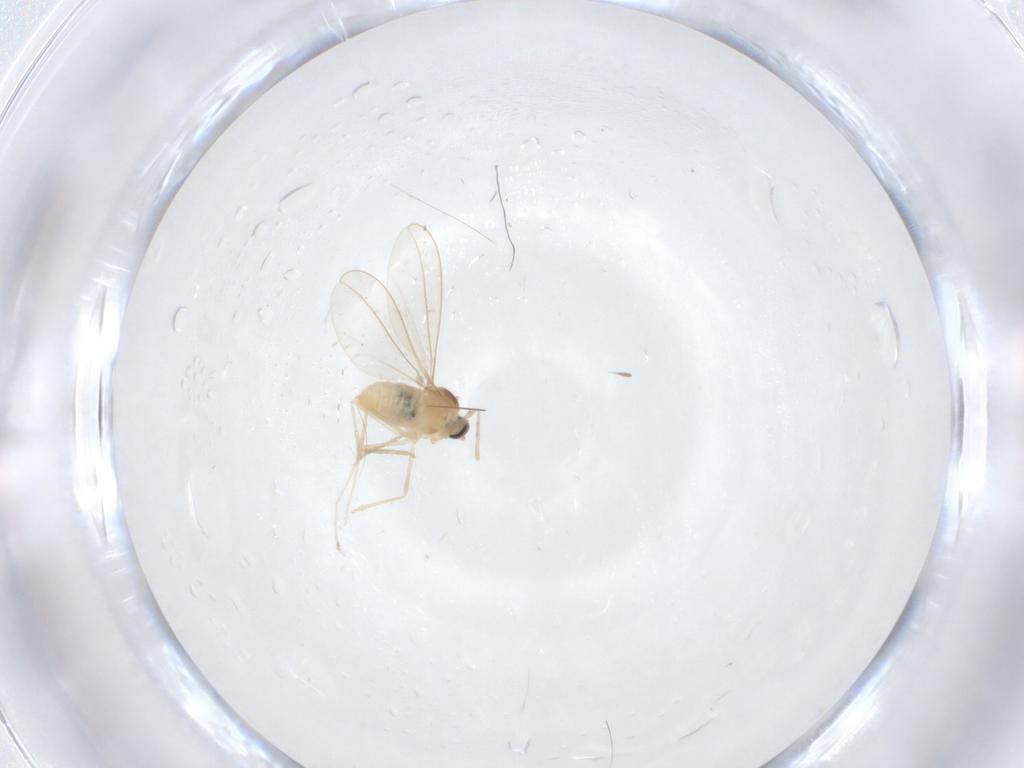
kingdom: Animalia
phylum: Arthropoda
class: Insecta
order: Diptera
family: Cecidomyiidae
